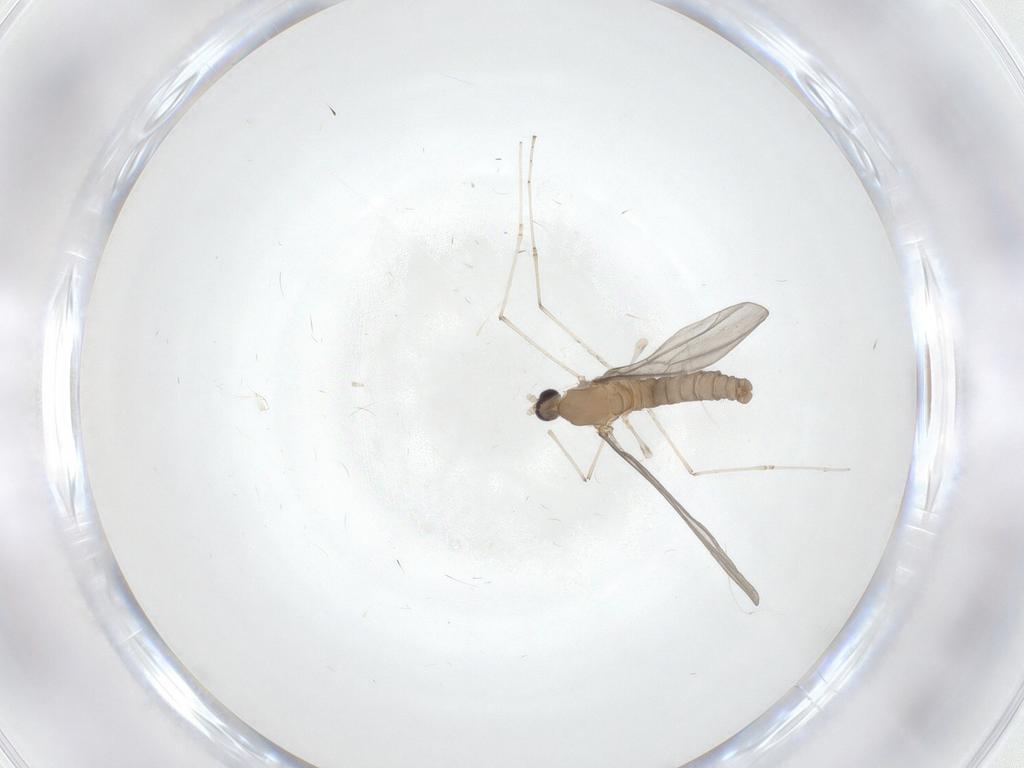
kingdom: Animalia
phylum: Arthropoda
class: Insecta
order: Diptera
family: Cecidomyiidae
